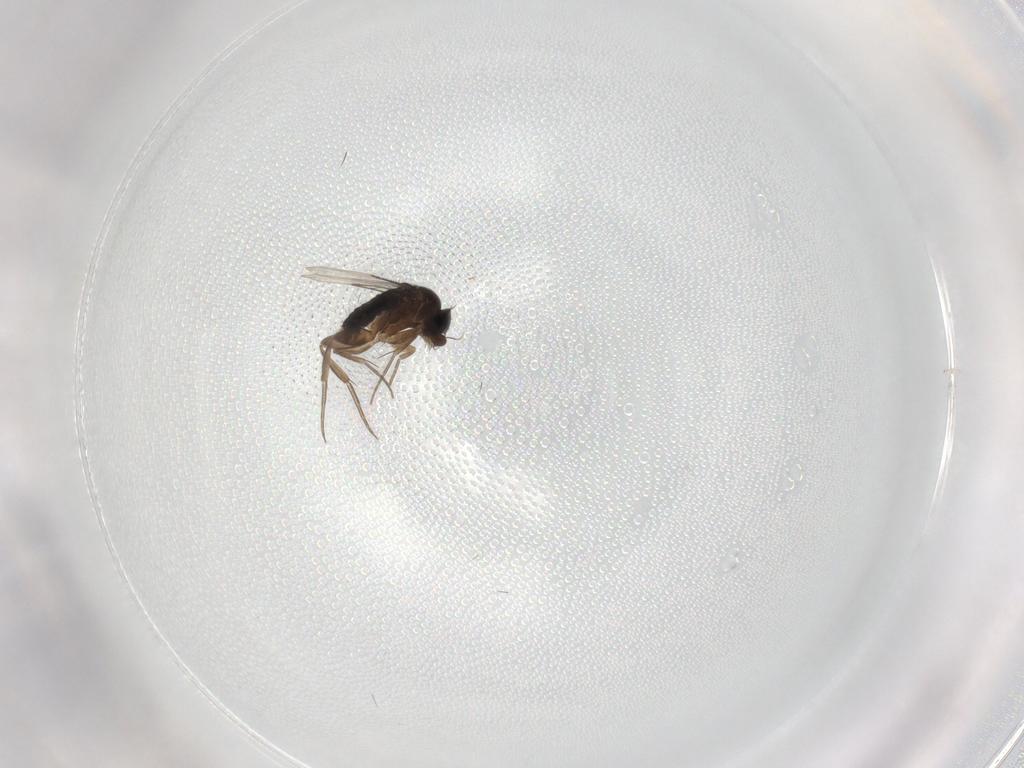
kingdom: Animalia
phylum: Arthropoda
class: Insecta
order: Diptera
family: Phoridae
